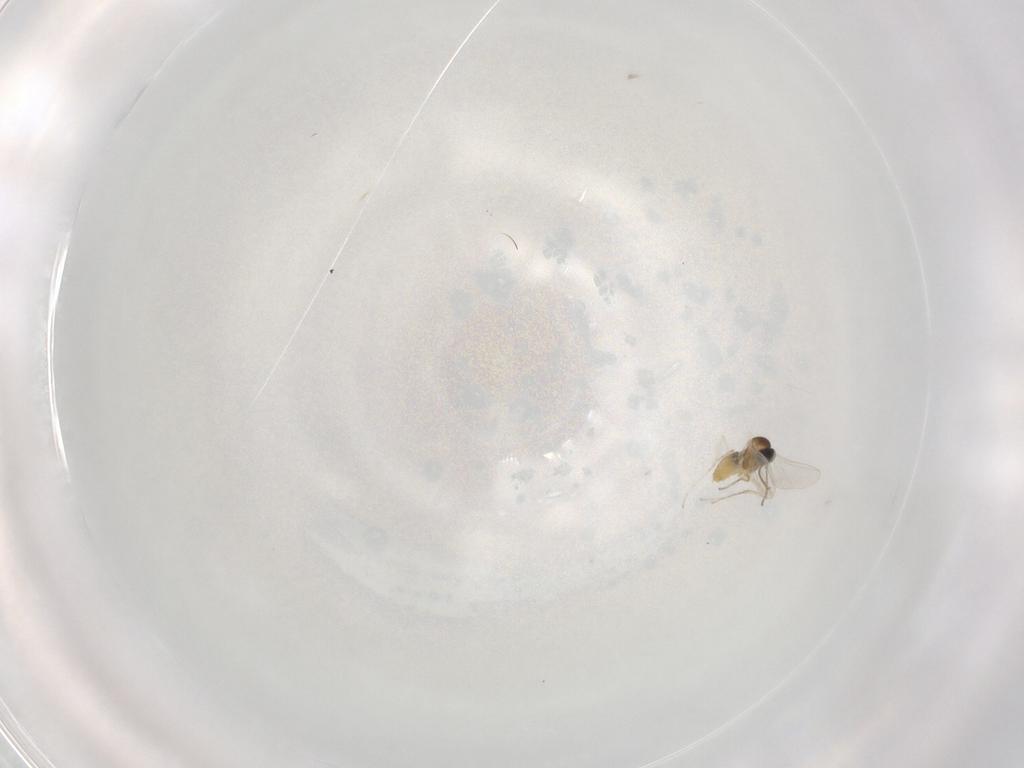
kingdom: Animalia
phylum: Arthropoda
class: Insecta
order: Diptera
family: Cecidomyiidae
